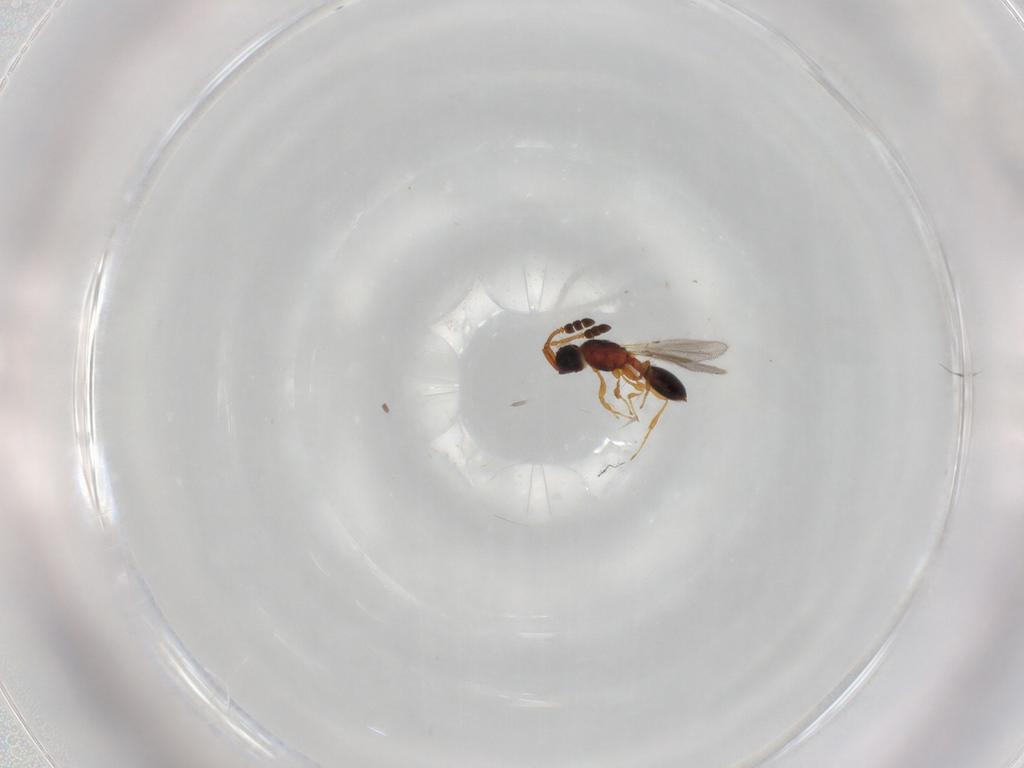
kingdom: Animalia
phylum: Arthropoda
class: Insecta
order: Hymenoptera
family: Diapriidae
